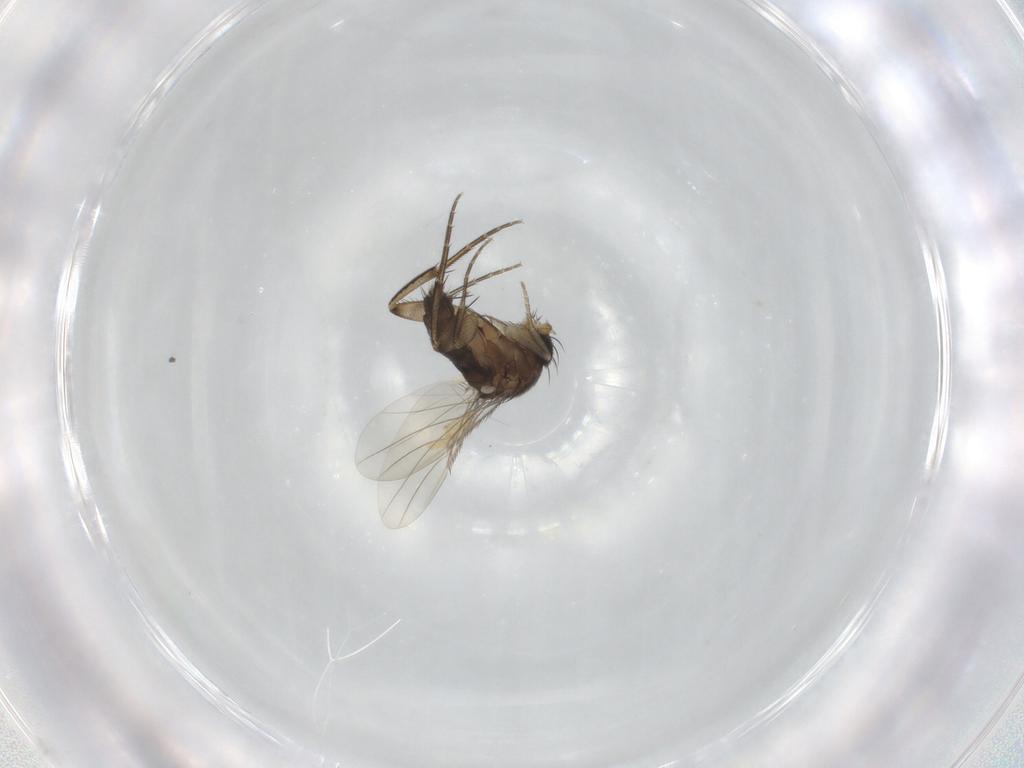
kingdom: Animalia
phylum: Arthropoda
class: Insecta
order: Diptera
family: Phoridae
